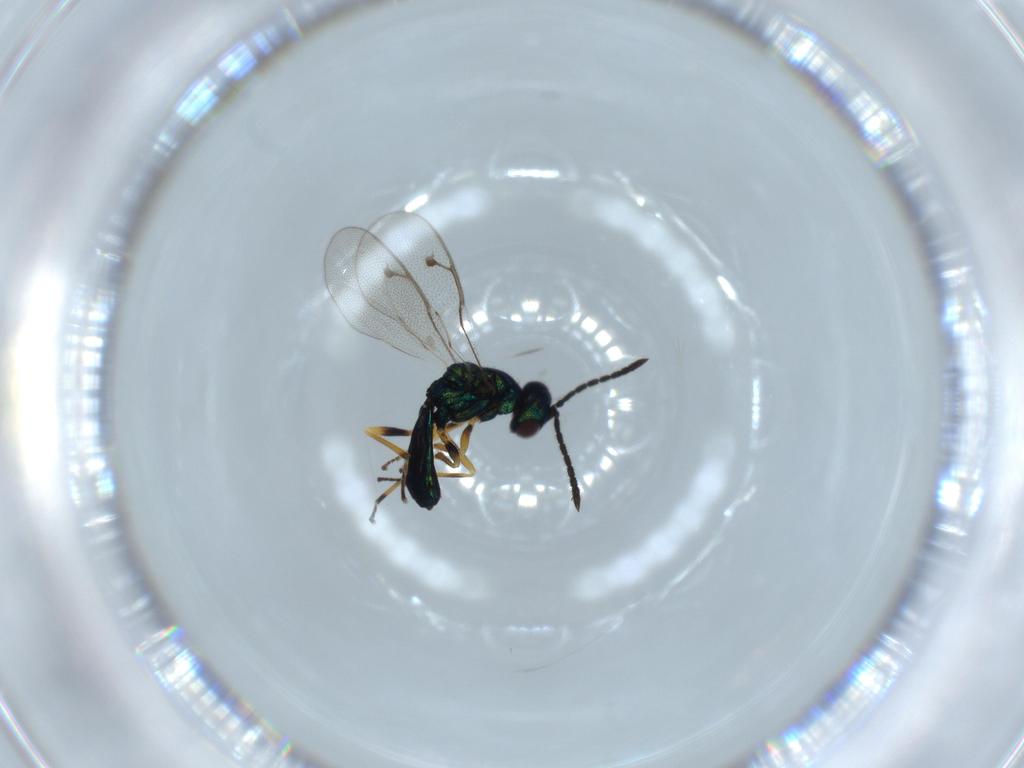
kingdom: Animalia
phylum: Arthropoda
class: Insecta
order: Hymenoptera
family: Pteromalidae
